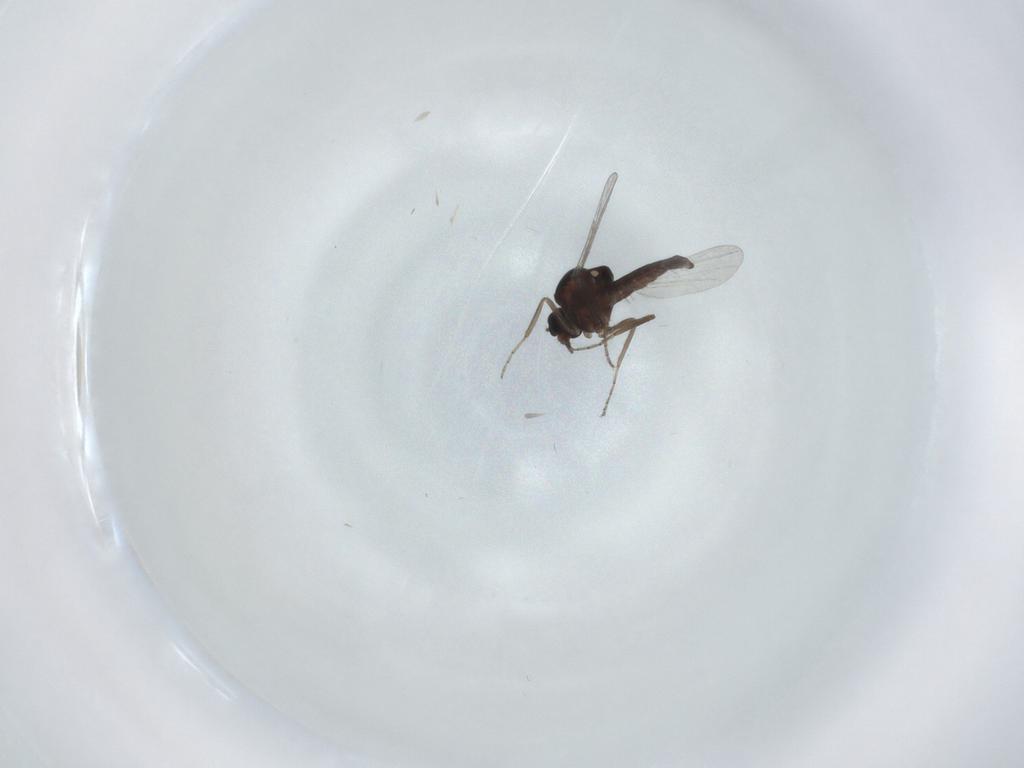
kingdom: Animalia
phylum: Arthropoda
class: Insecta
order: Diptera
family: Ceratopogonidae
